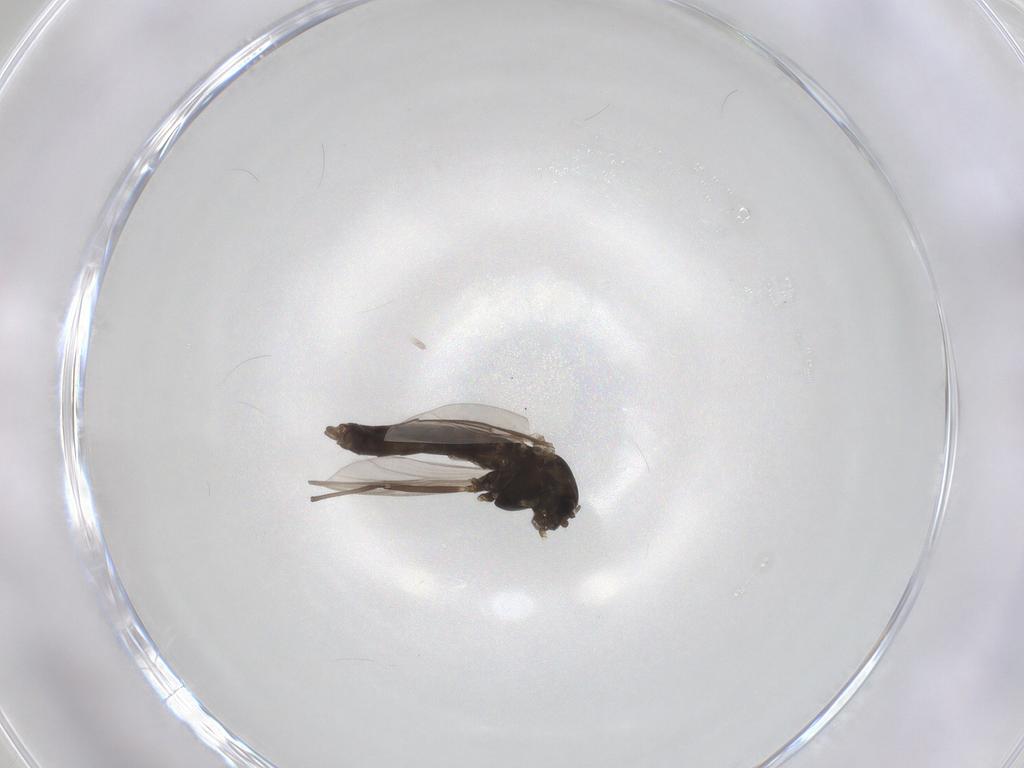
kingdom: Animalia
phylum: Arthropoda
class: Insecta
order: Diptera
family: Chironomidae
